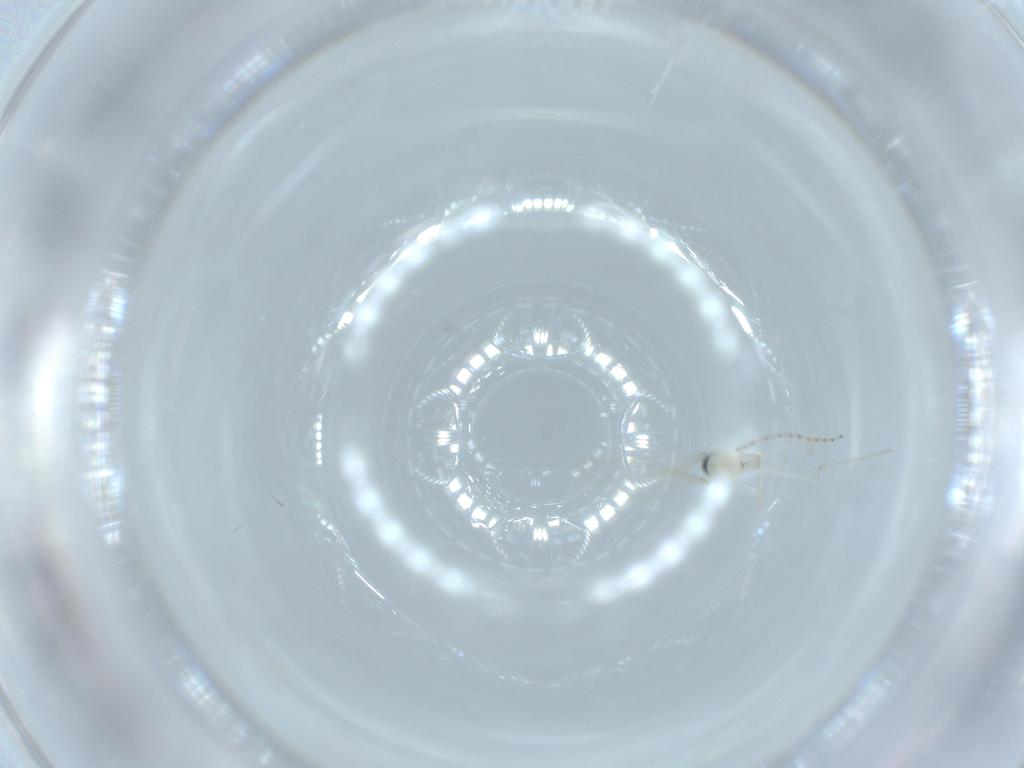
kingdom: Animalia
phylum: Arthropoda
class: Insecta
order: Diptera
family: Cecidomyiidae
